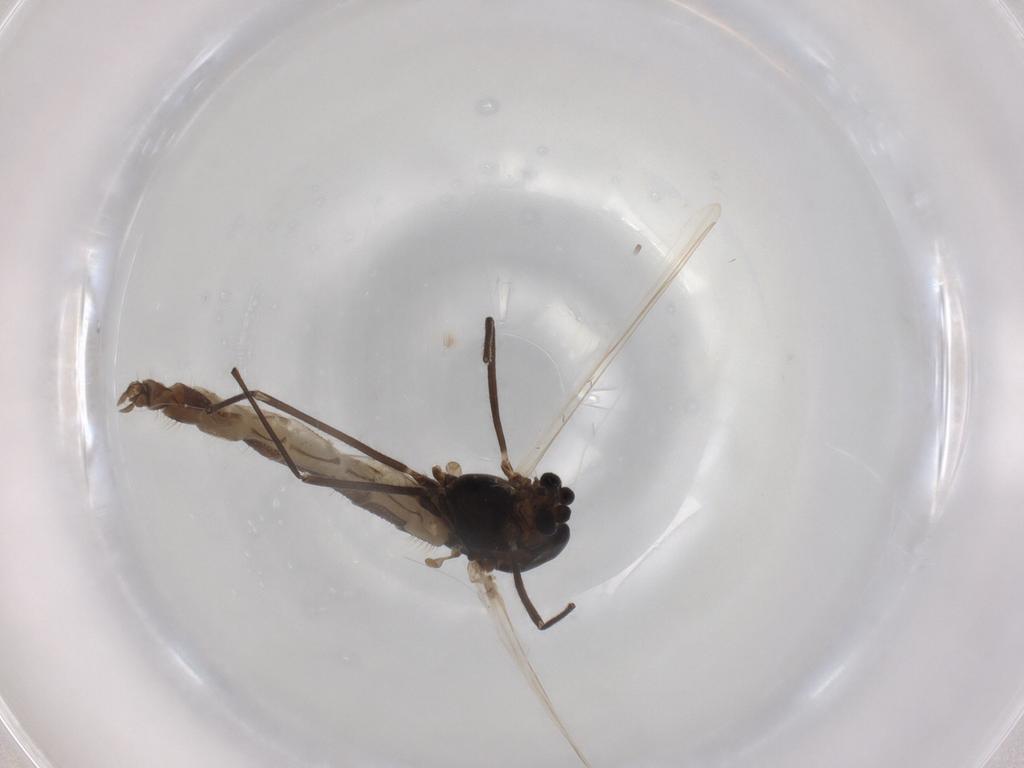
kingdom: Animalia
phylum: Arthropoda
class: Insecta
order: Diptera
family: Chironomidae
